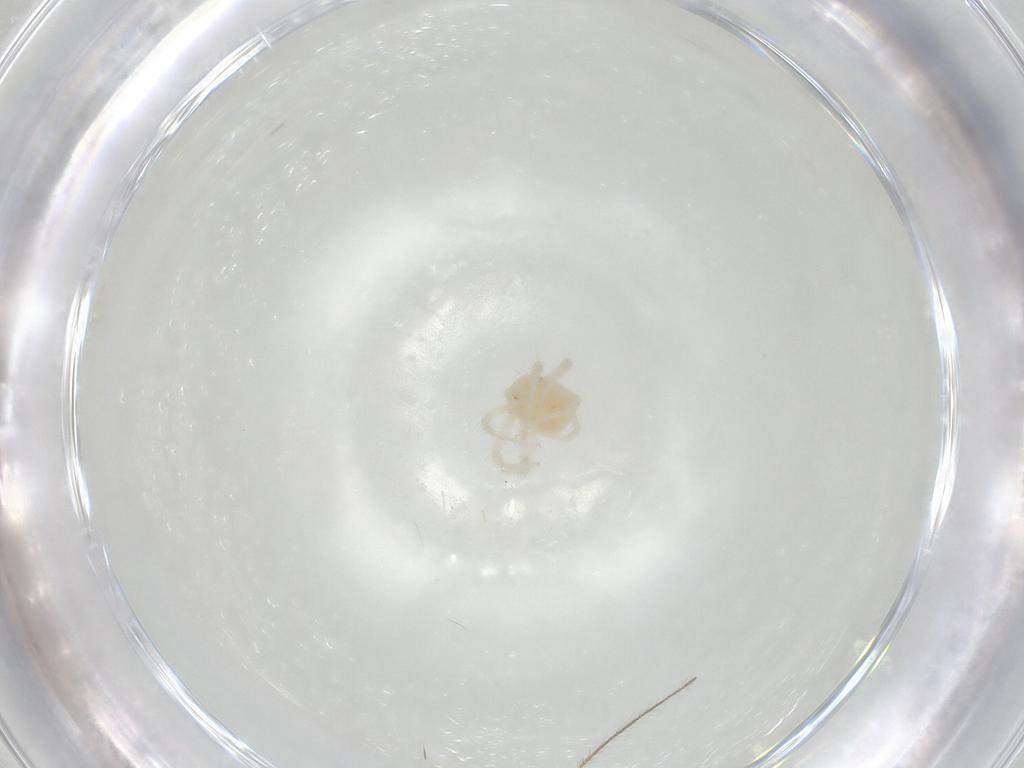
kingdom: Animalia
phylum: Arthropoda
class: Arachnida
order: Trombidiformes
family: Anystidae
